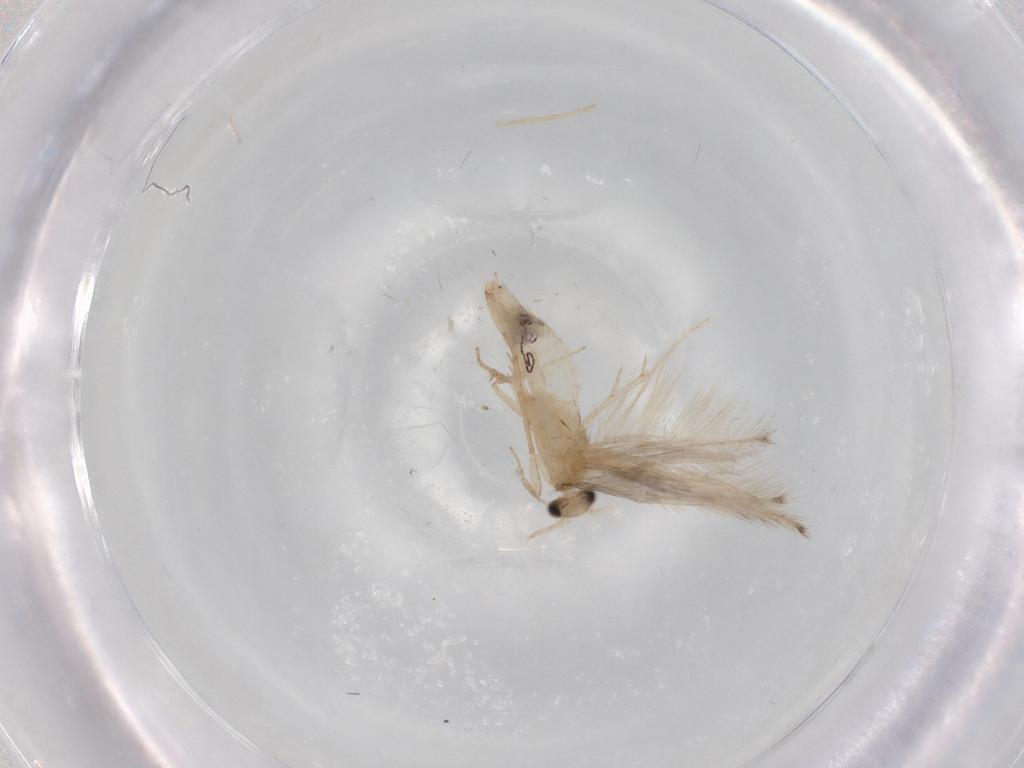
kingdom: Animalia
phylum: Arthropoda
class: Insecta
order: Trichoptera
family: Hydroptilidae
